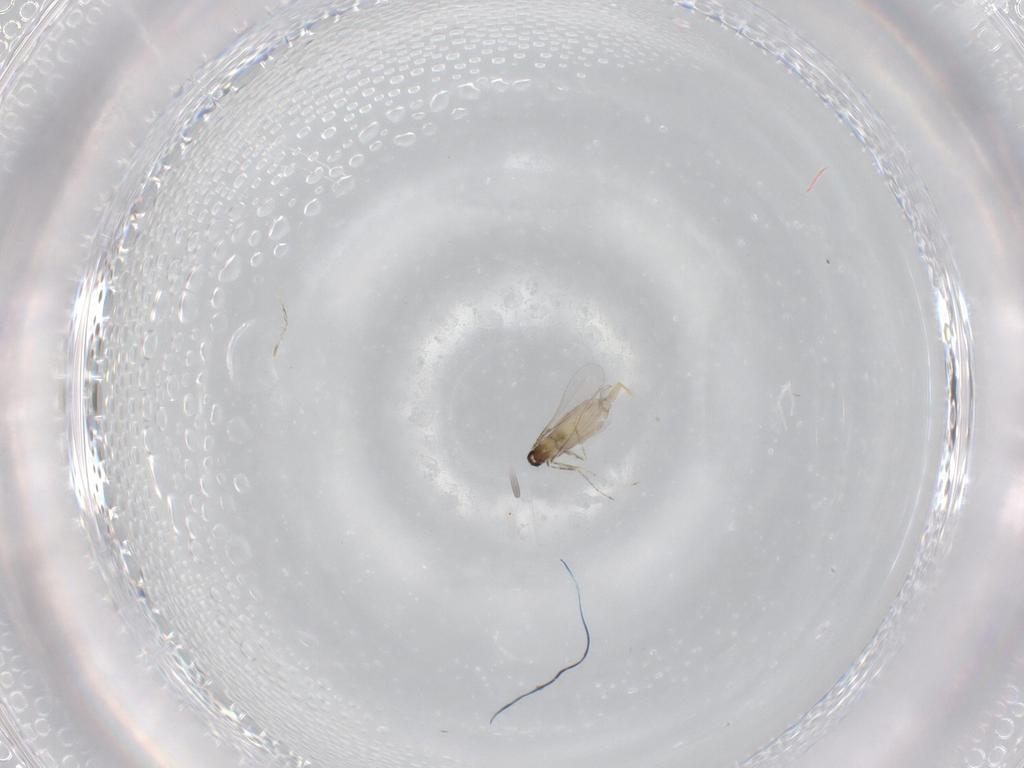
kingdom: Animalia
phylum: Arthropoda
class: Insecta
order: Diptera
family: Cecidomyiidae
